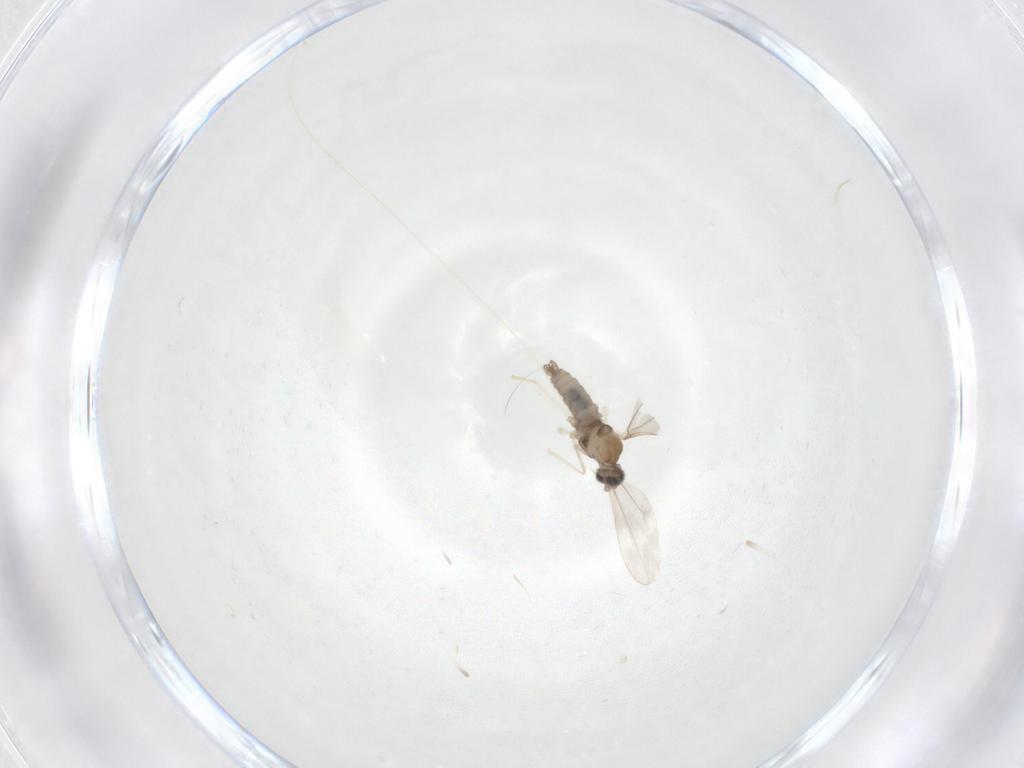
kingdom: Animalia
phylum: Arthropoda
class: Insecta
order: Diptera
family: Cecidomyiidae
